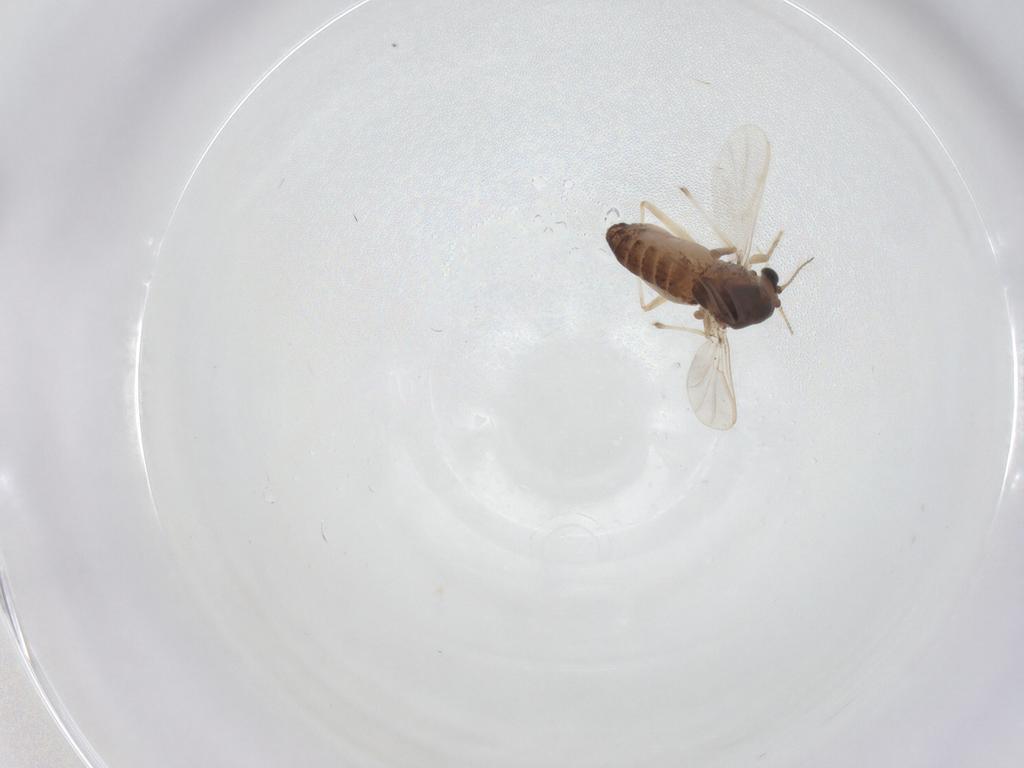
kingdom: Animalia
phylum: Arthropoda
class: Insecta
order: Diptera
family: Chironomidae
